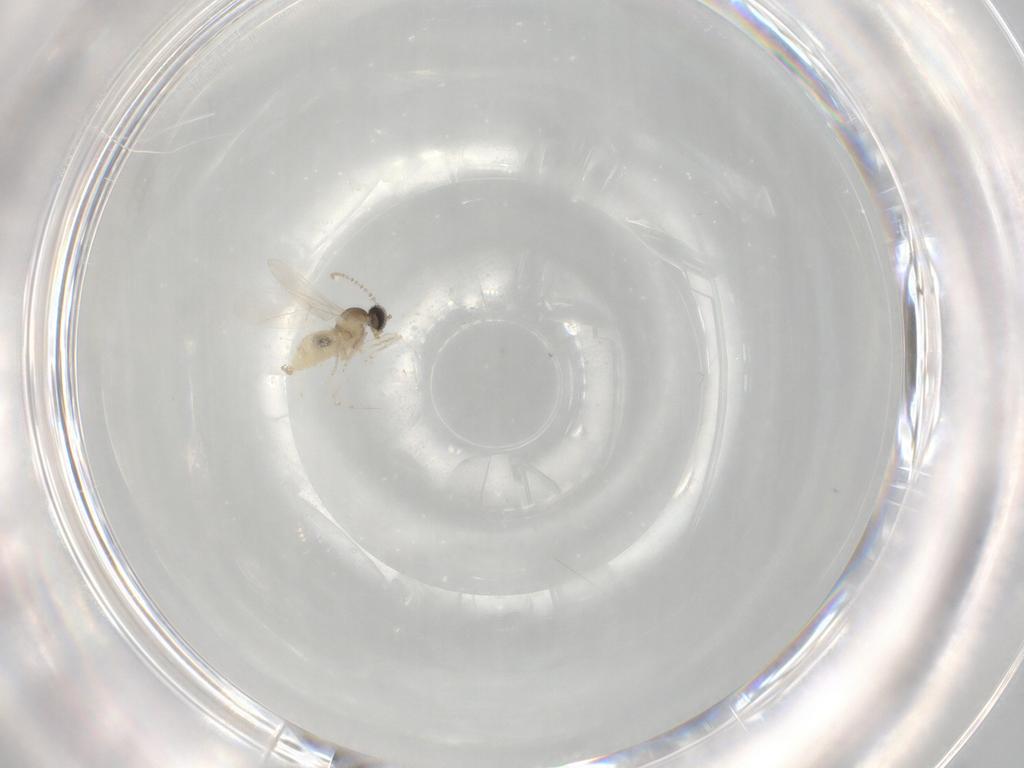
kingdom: Animalia
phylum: Arthropoda
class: Insecta
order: Diptera
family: Cecidomyiidae
